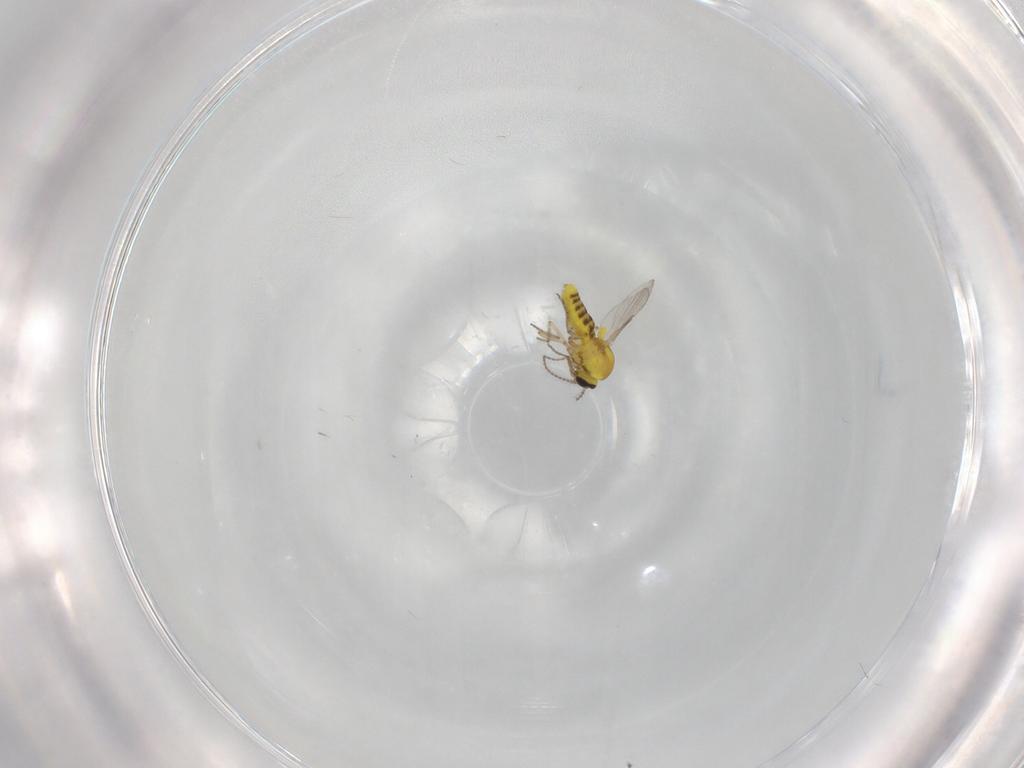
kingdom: Animalia
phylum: Arthropoda
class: Insecta
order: Diptera
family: Ceratopogonidae
